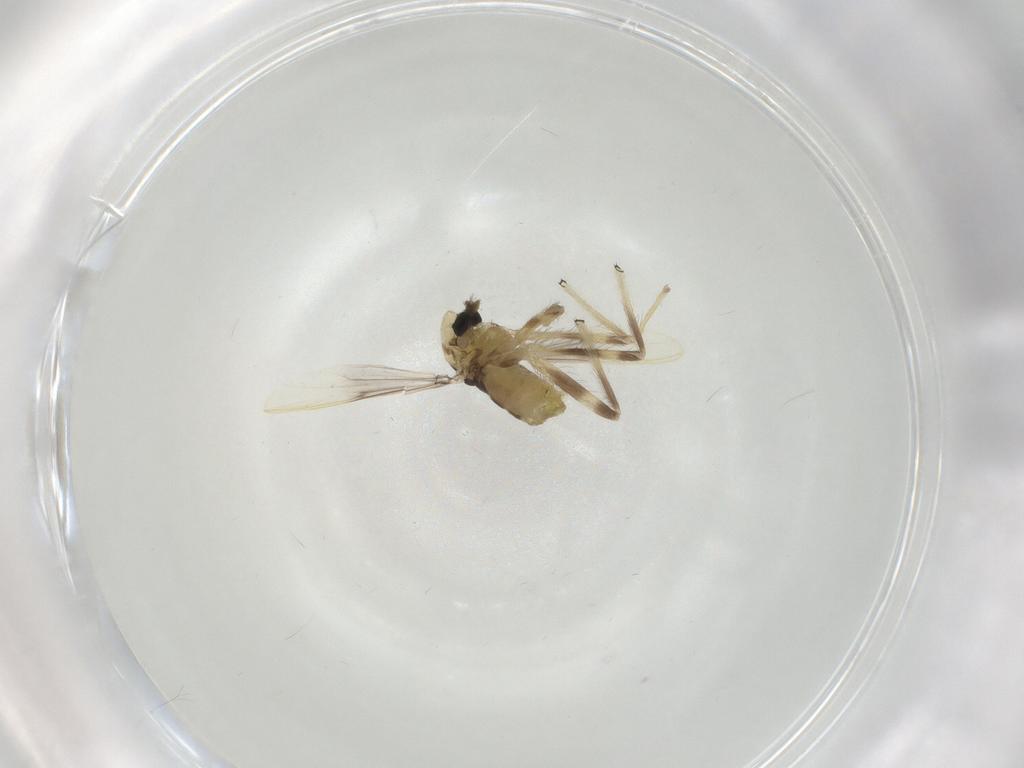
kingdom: Animalia
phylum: Arthropoda
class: Insecta
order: Diptera
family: Chironomidae
